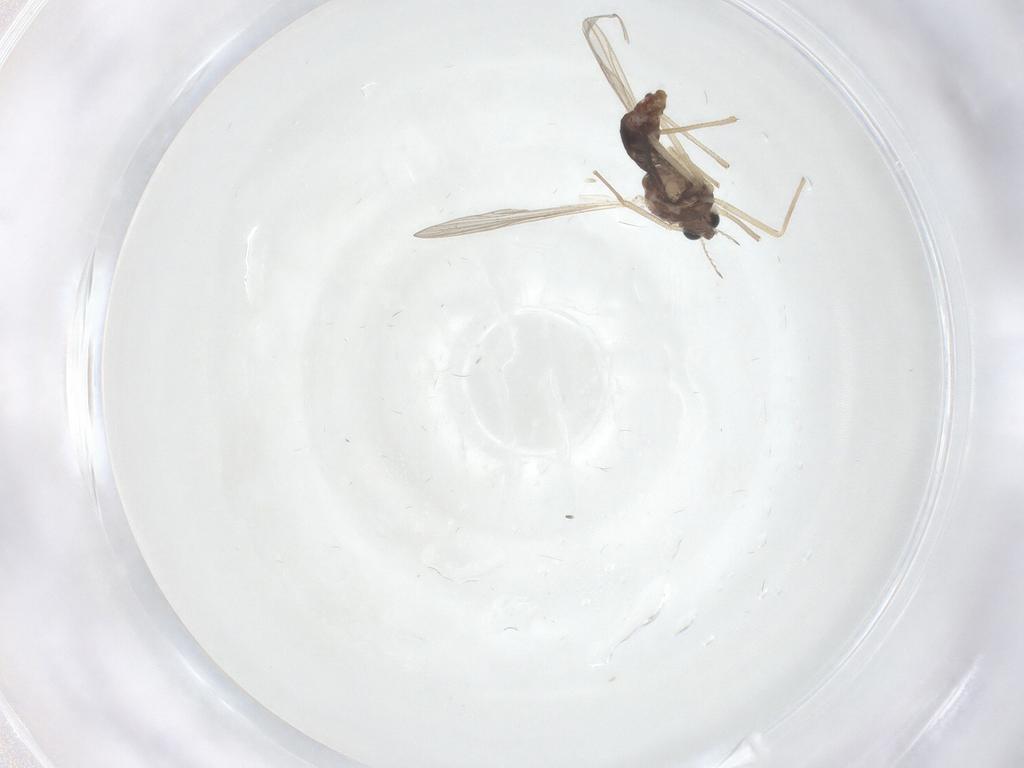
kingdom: Animalia
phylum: Arthropoda
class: Insecta
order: Diptera
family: Chironomidae
